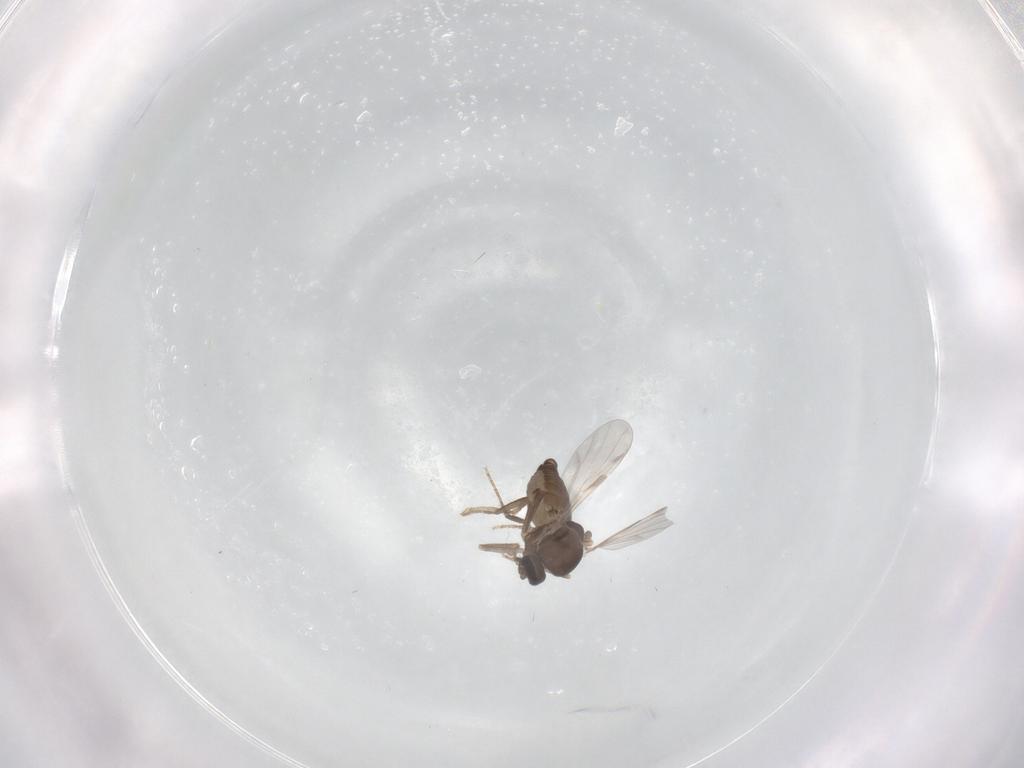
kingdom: Animalia
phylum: Arthropoda
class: Insecta
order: Diptera
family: Ceratopogonidae
